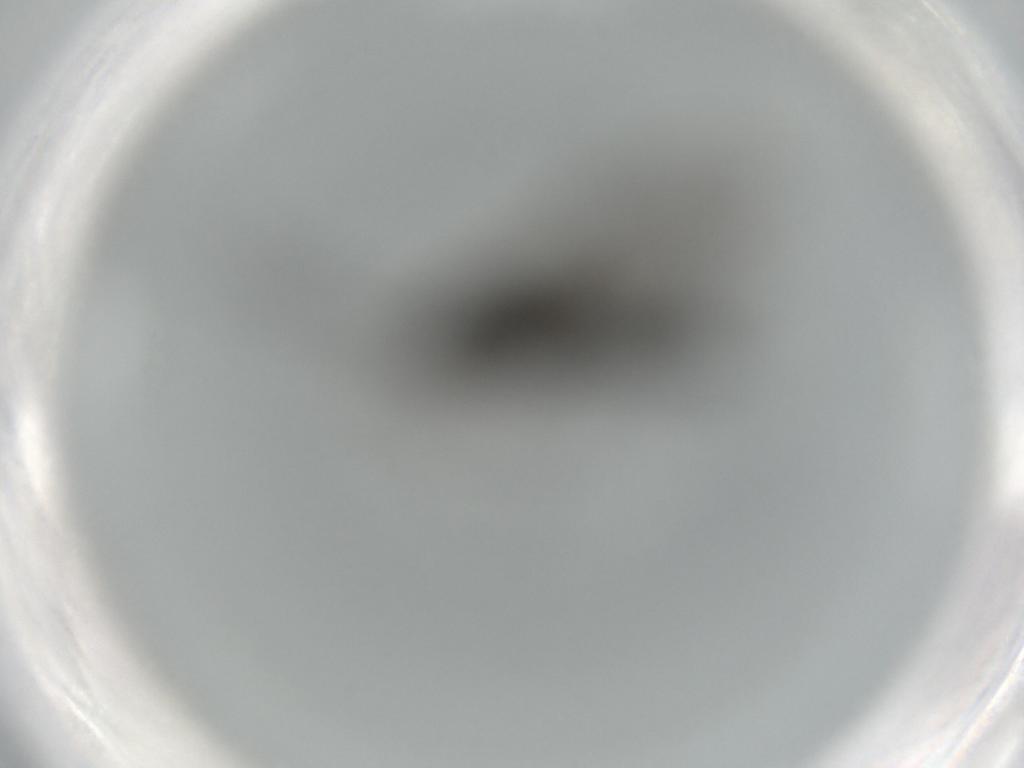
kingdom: Animalia
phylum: Arthropoda
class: Insecta
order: Diptera
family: Sciaridae
